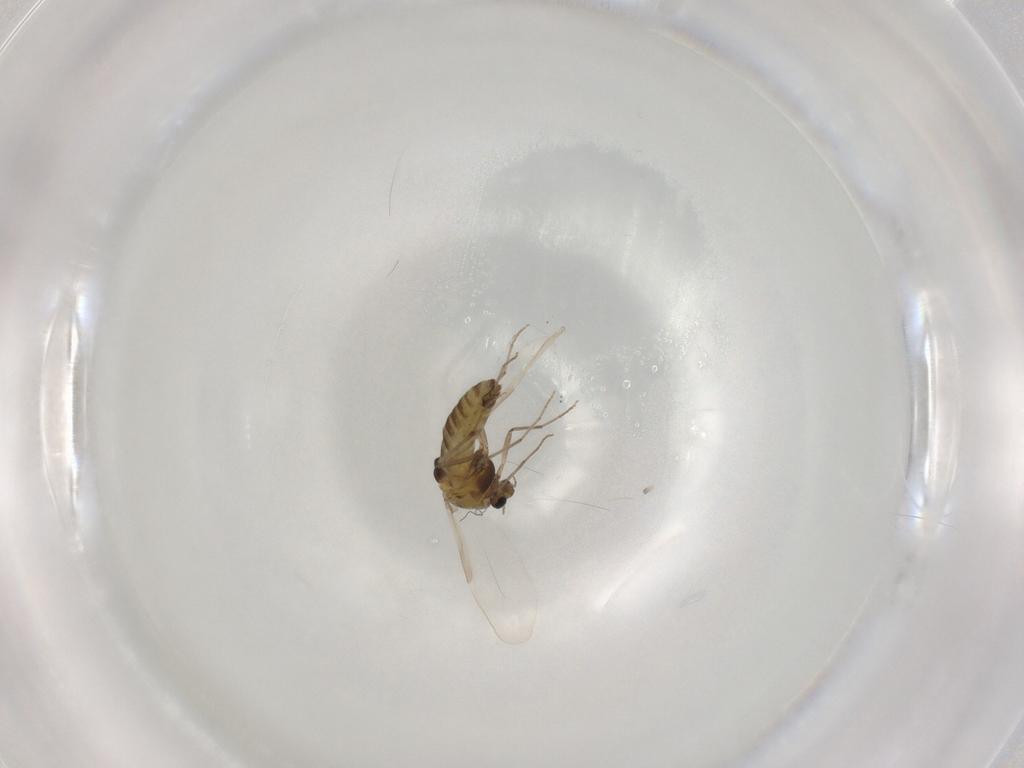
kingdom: Animalia
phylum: Arthropoda
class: Insecta
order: Diptera
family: Chironomidae
